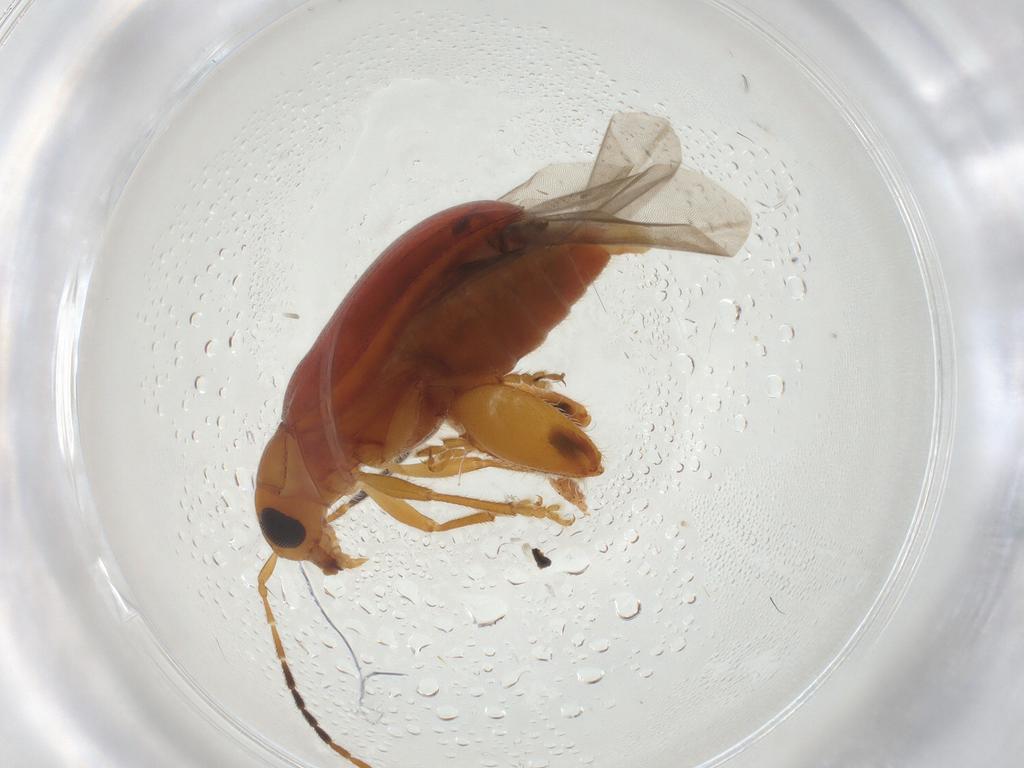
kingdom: Animalia
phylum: Arthropoda
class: Insecta
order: Coleoptera
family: Chrysomelidae
